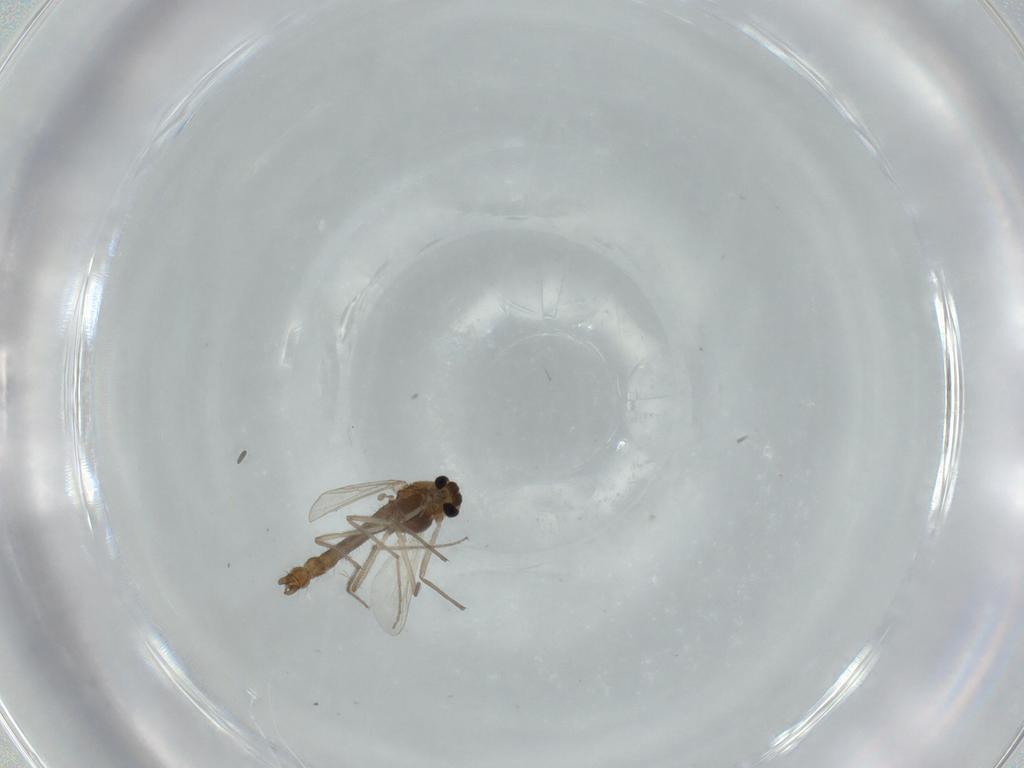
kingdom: Animalia
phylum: Arthropoda
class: Insecta
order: Diptera
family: Chironomidae
